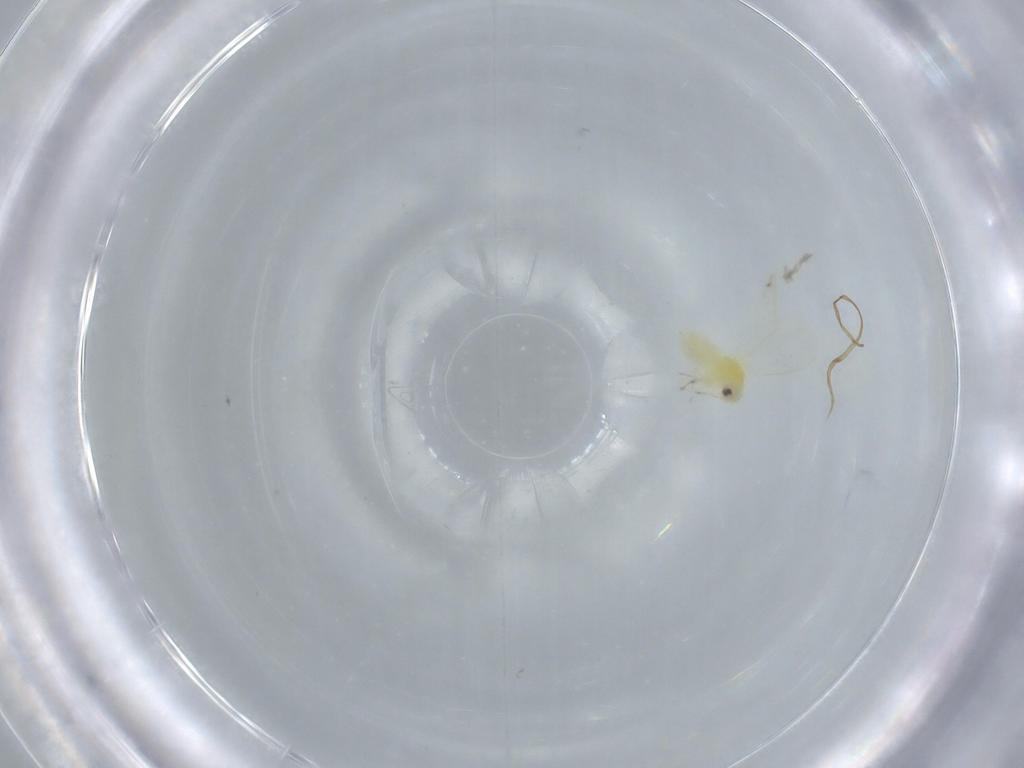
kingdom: Animalia
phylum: Arthropoda
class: Insecta
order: Hemiptera
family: Aleyrodidae
